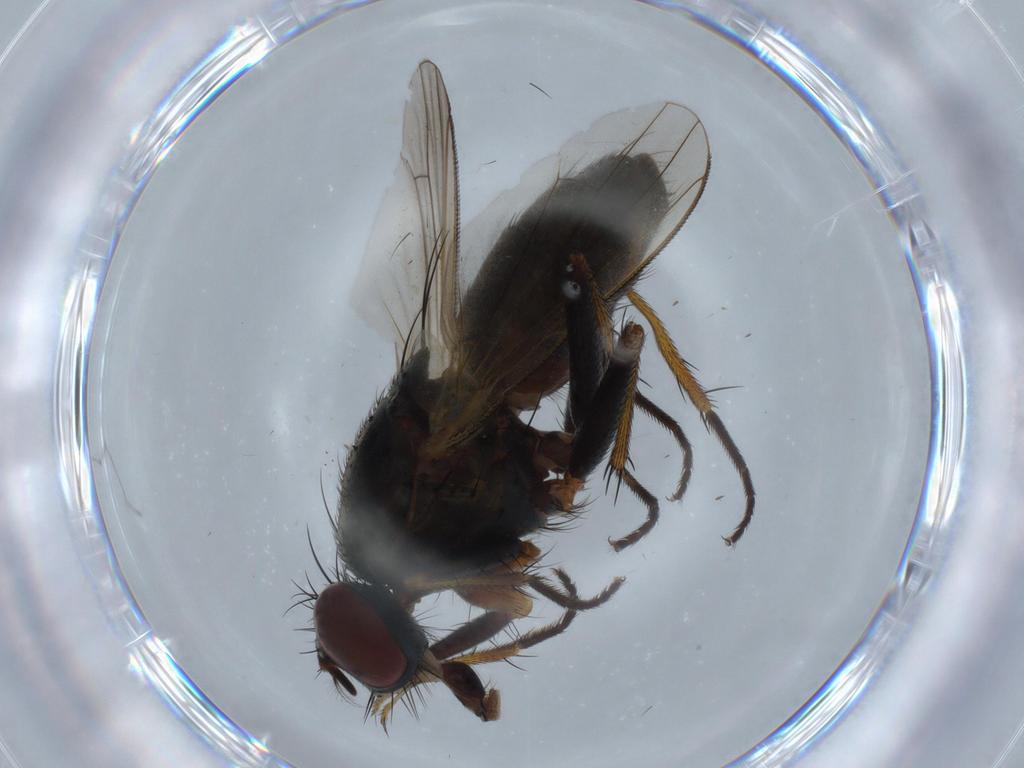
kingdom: Animalia
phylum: Arthropoda
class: Insecta
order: Diptera
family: Muscidae
